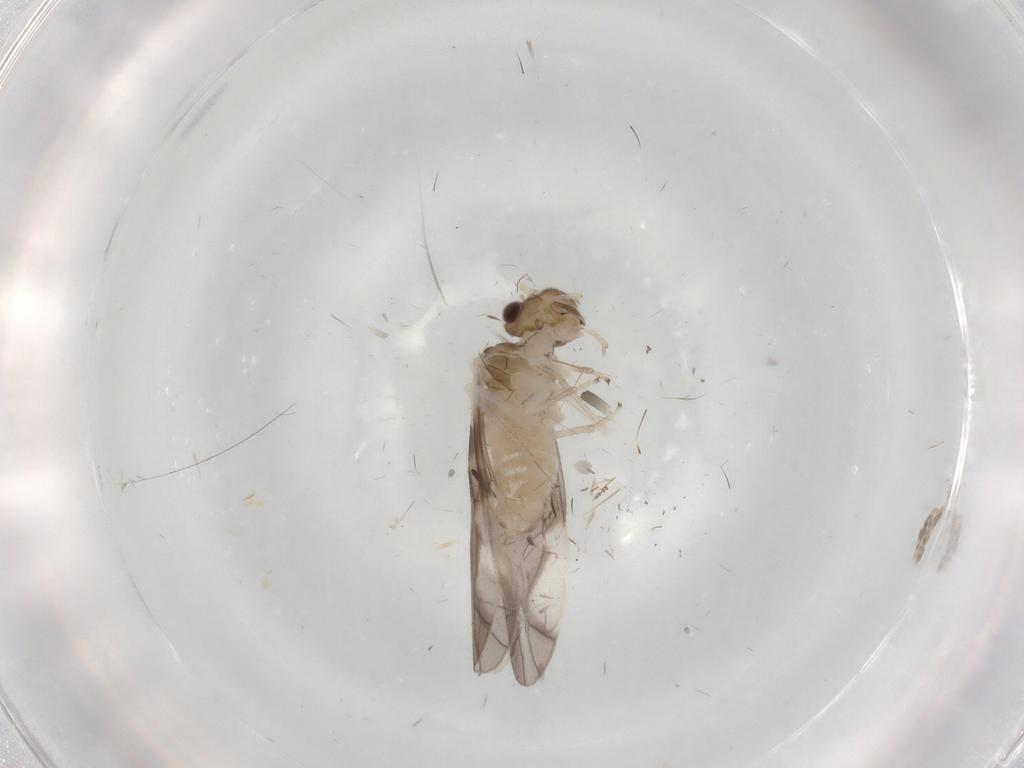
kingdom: Animalia
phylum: Arthropoda
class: Insecta
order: Psocodea
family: Caeciliusidae
